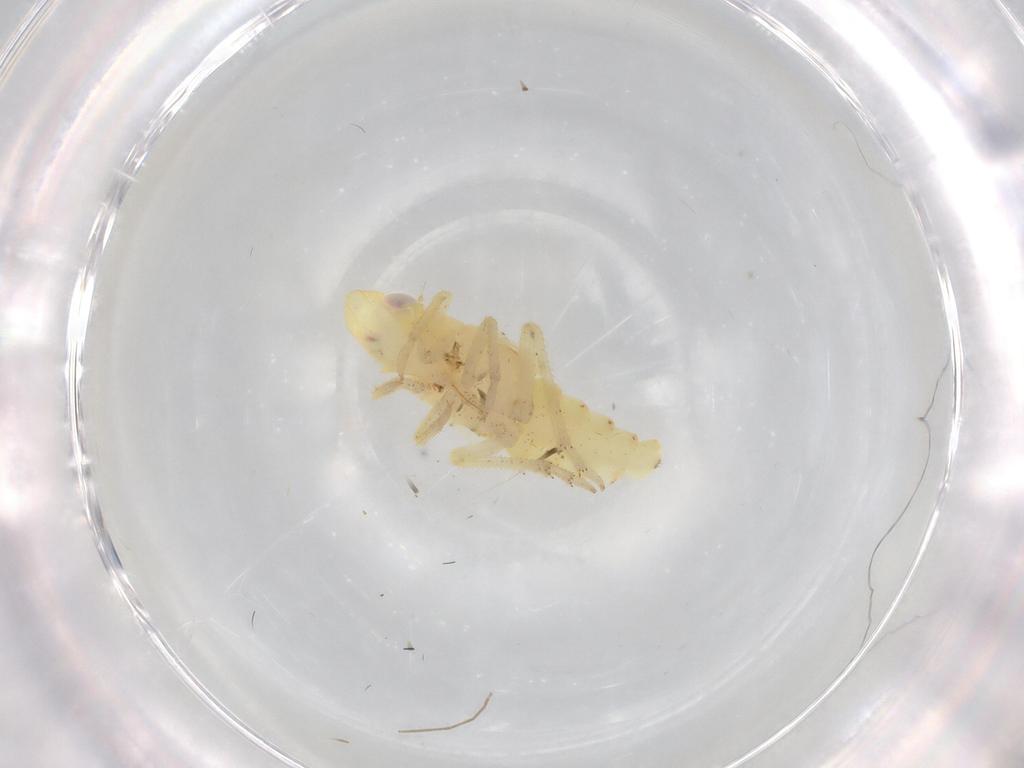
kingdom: Animalia
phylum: Arthropoda
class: Insecta
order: Hemiptera
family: Tropiduchidae
